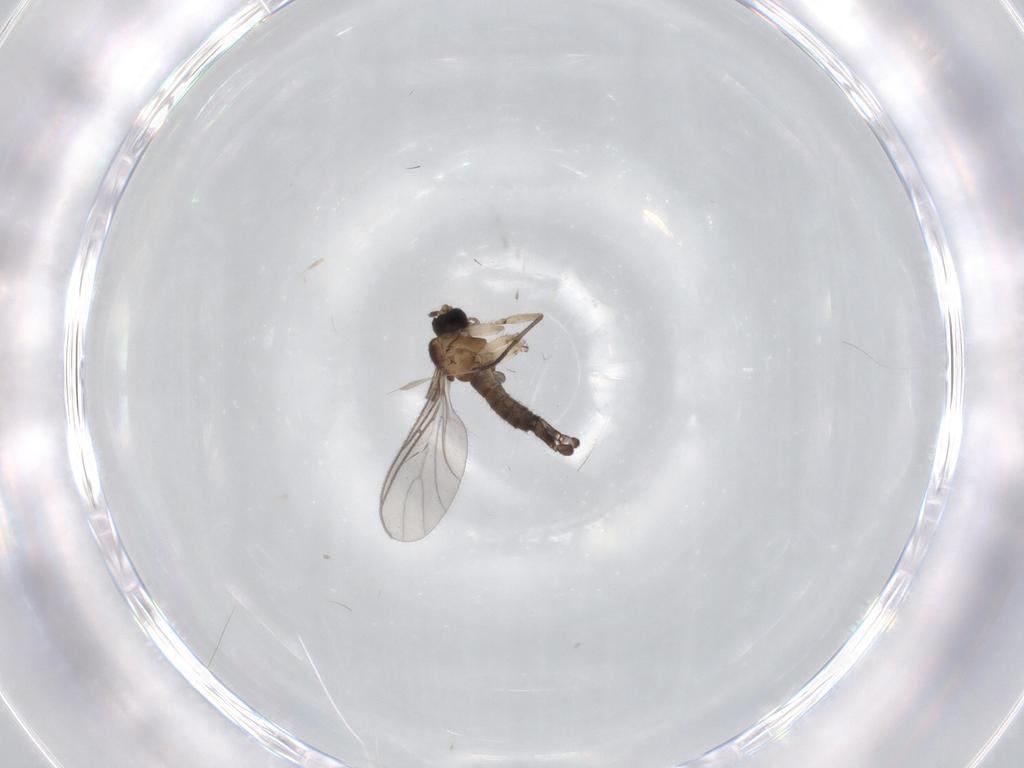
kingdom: Animalia
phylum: Arthropoda
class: Insecta
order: Diptera
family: Sciaridae
